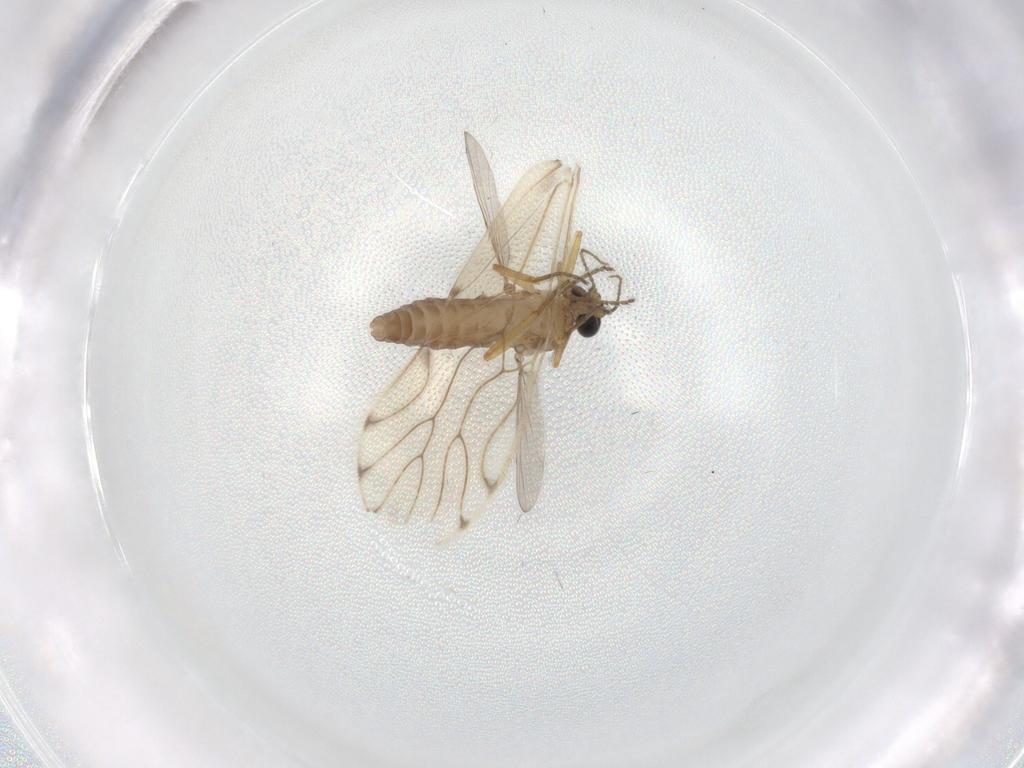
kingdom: Animalia
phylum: Arthropoda
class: Insecta
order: Diptera
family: Ceratopogonidae
